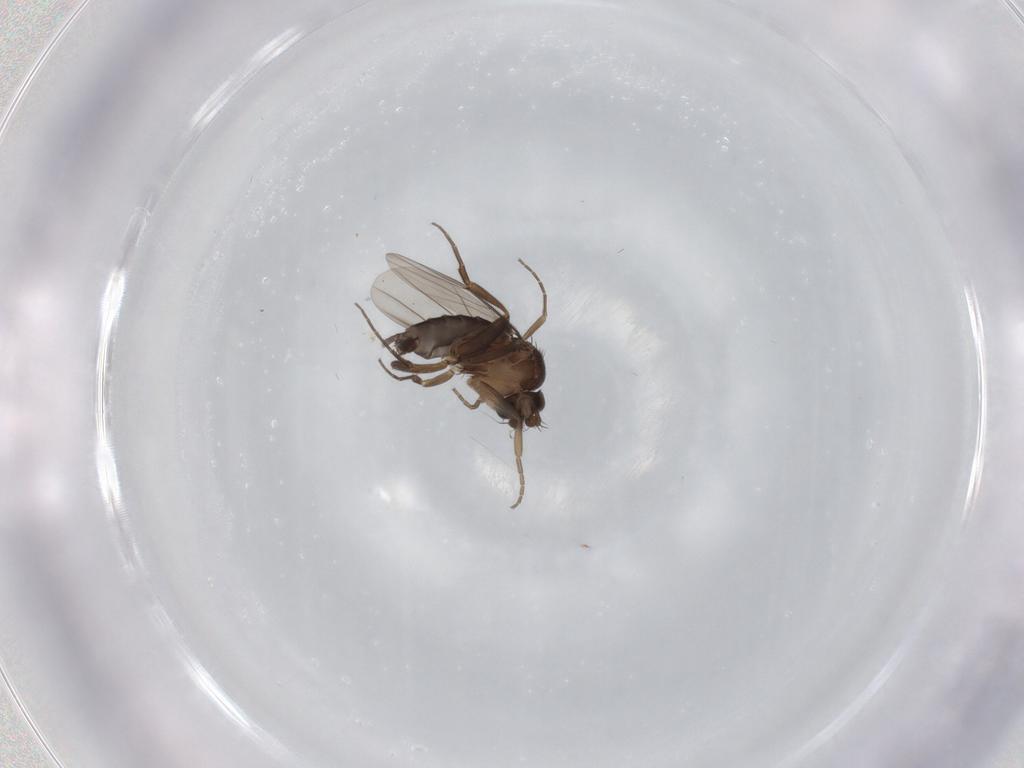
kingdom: Animalia
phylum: Arthropoda
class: Insecta
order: Diptera
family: Phoridae
